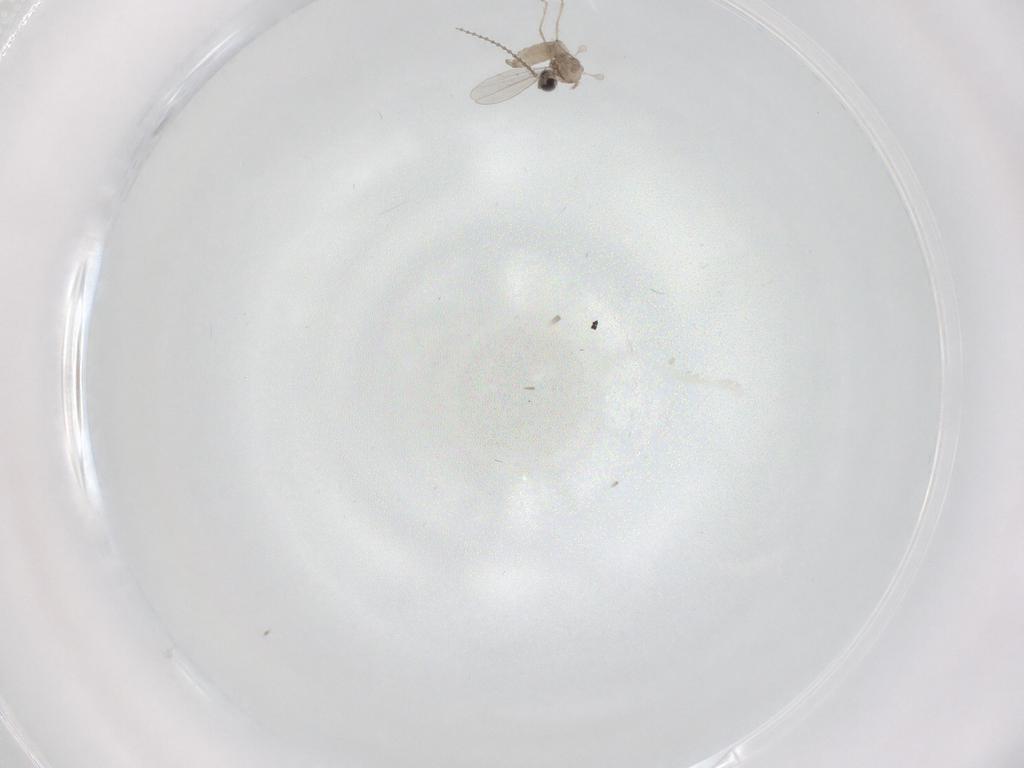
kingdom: Animalia
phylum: Arthropoda
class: Insecta
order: Diptera
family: Cecidomyiidae
